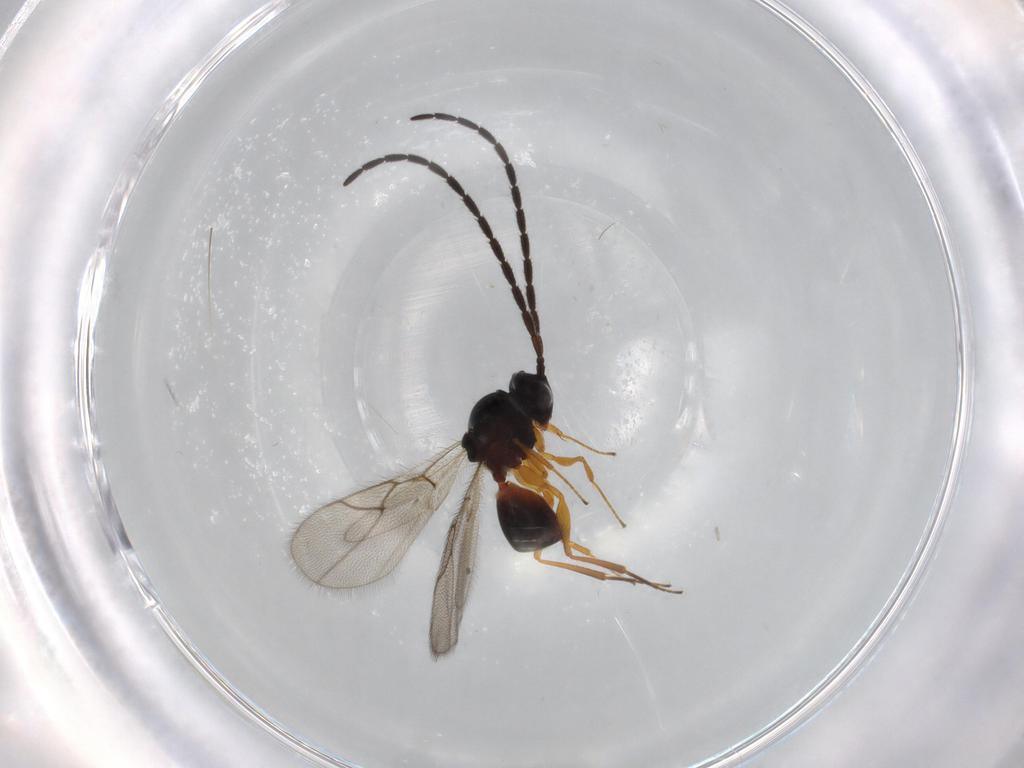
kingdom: Animalia
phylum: Arthropoda
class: Insecta
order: Hymenoptera
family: Figitidae
